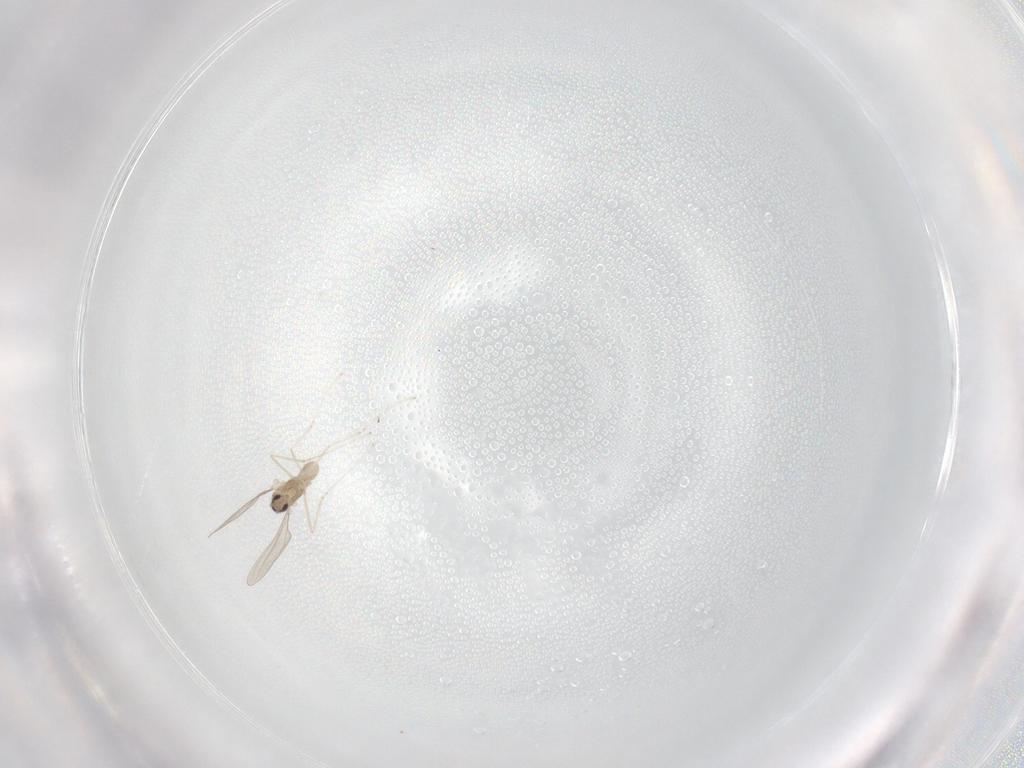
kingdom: Animalia
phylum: Arthropoda
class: Insecta
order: Diptera
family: Cecidomyiidae
